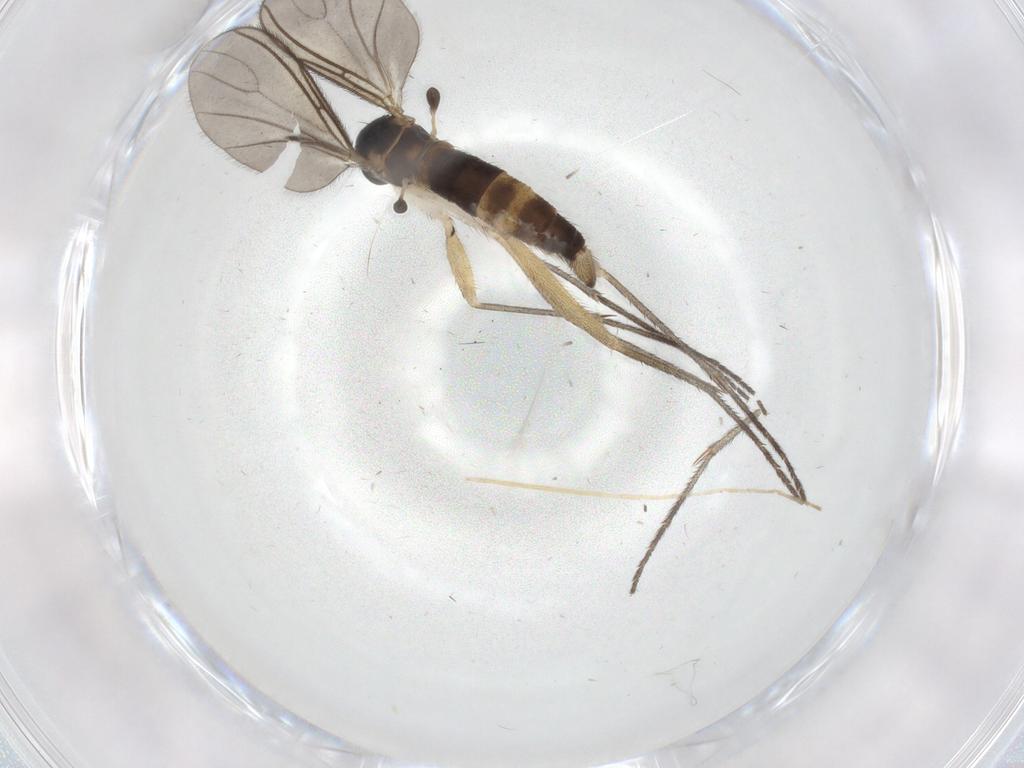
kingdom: Animalia
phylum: Arthropoda
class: Insecta
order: Diptera
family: Sciaridae
